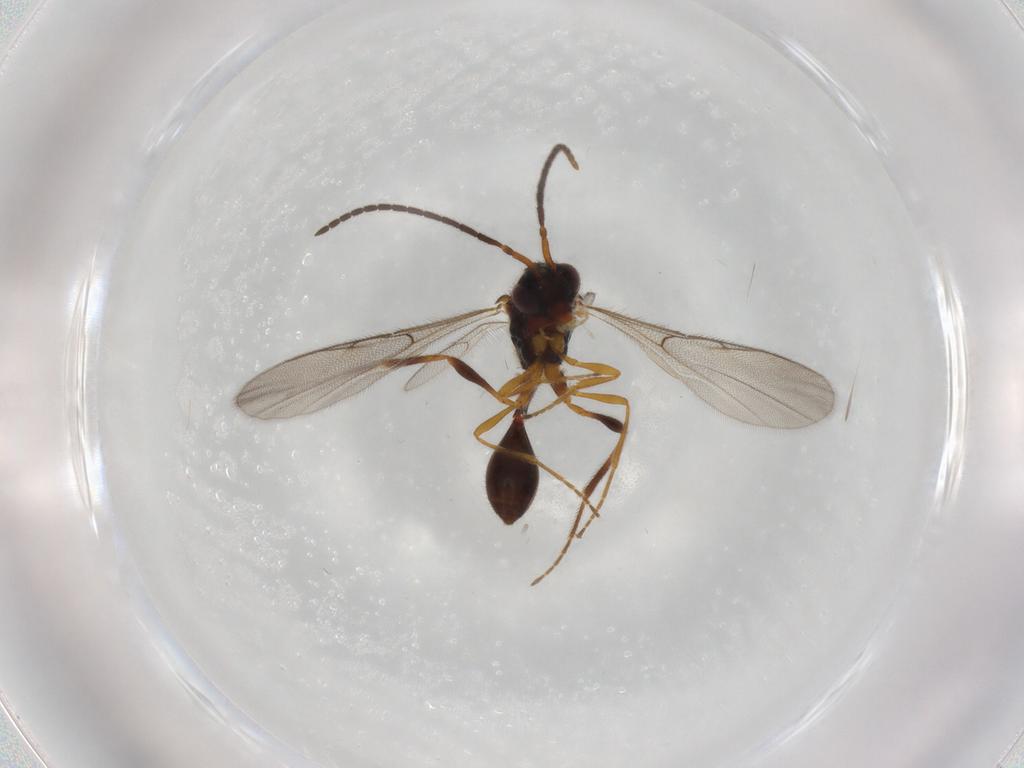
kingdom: Animalia
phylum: Arthropoda
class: Insecta
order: Hymenoptera
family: Diapriidae
